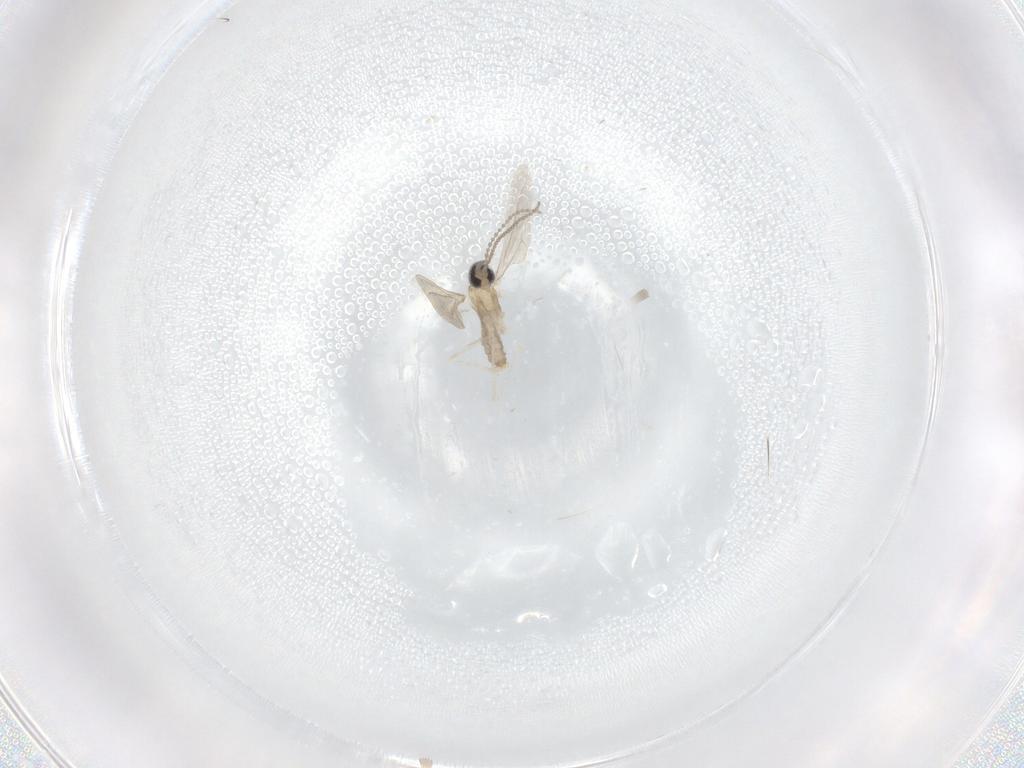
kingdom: Animalia
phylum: Arthropoda
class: Insecta
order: Diptera
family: Cecidomyiidae
